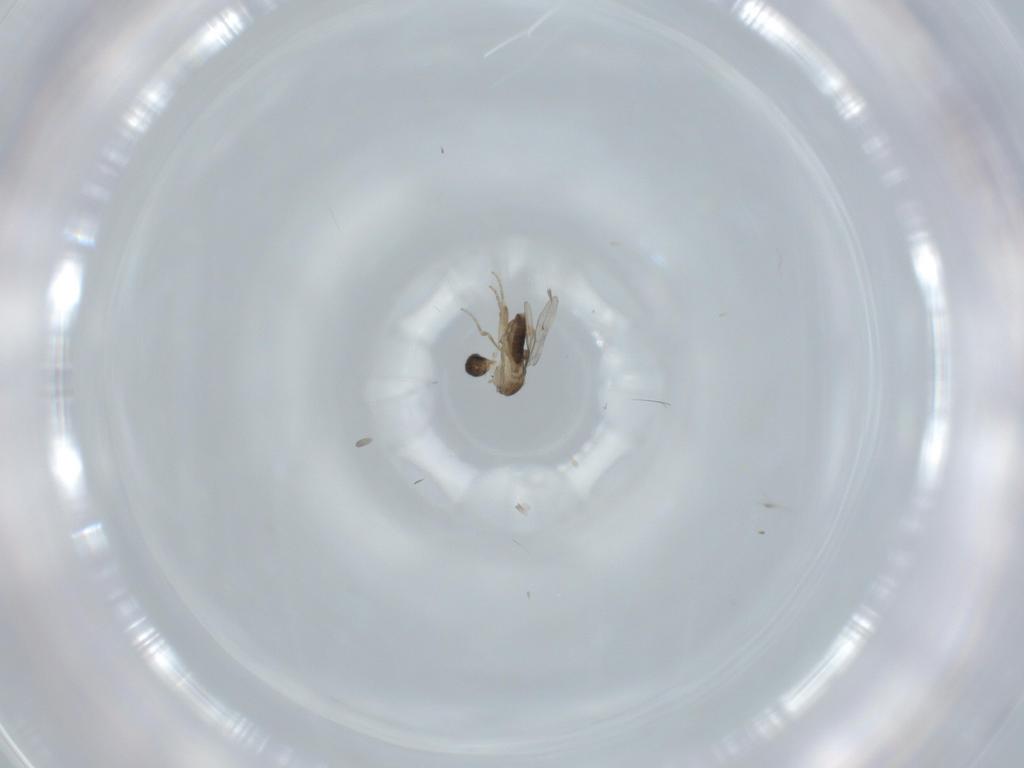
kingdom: Animalia
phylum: Arthropoda
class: Insecta
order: Diptera
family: Phoridae
